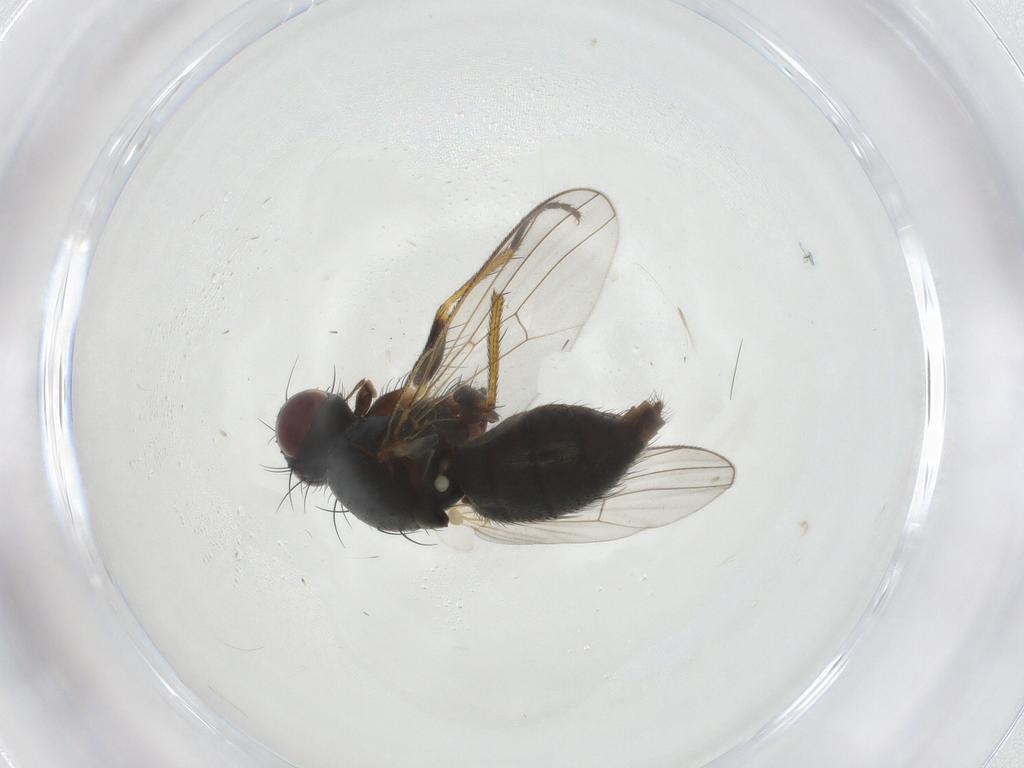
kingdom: Animalia
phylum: Arthropoda
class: Insecta
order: Diptera
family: Muscidae
